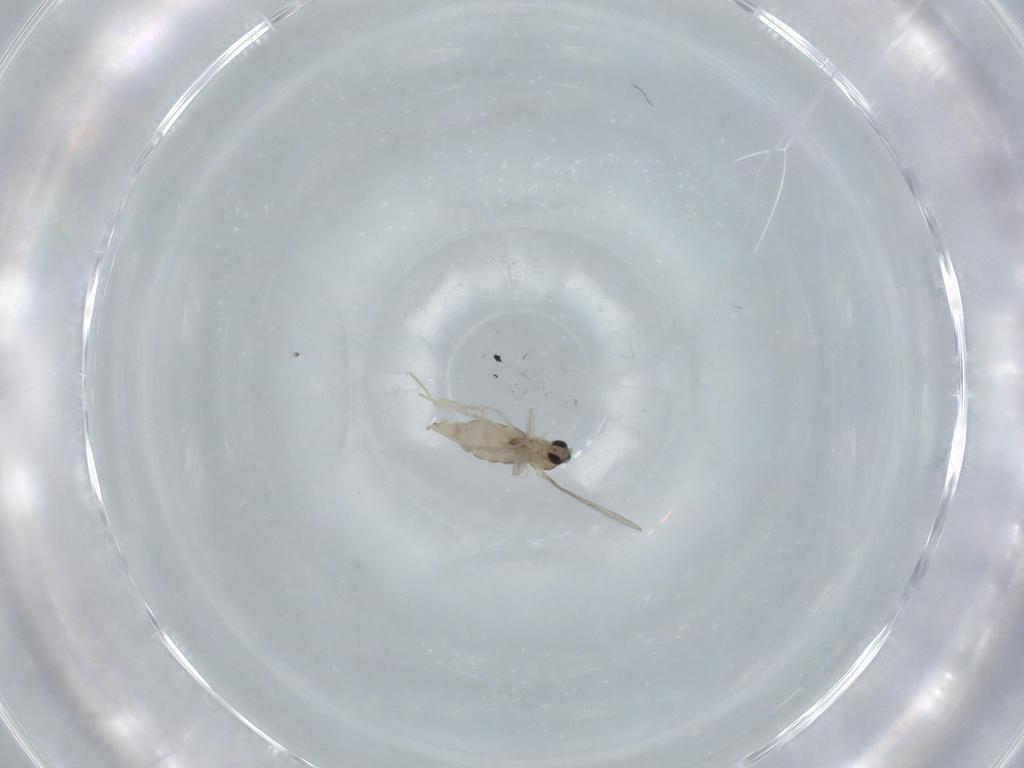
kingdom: Animalia
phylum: Arthropoda
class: Insecta
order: Diptera
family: Cecidomyiidae
